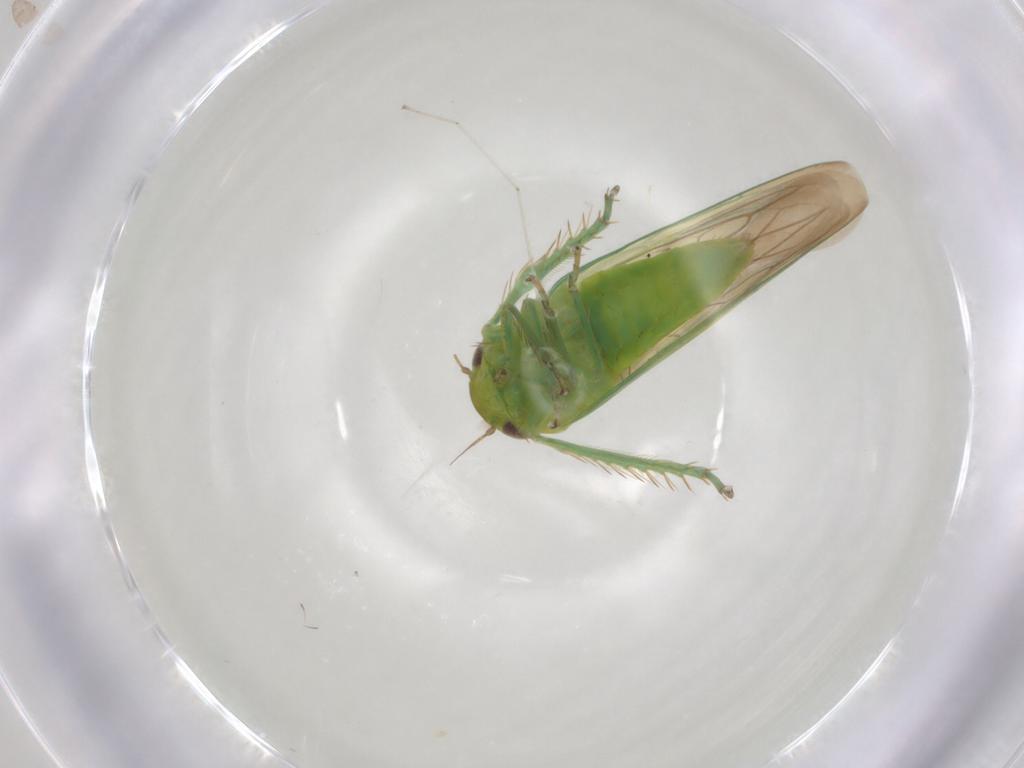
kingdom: Animalia
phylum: Arthropoda
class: Insecta
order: Hemiptera
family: Cicadellidae
